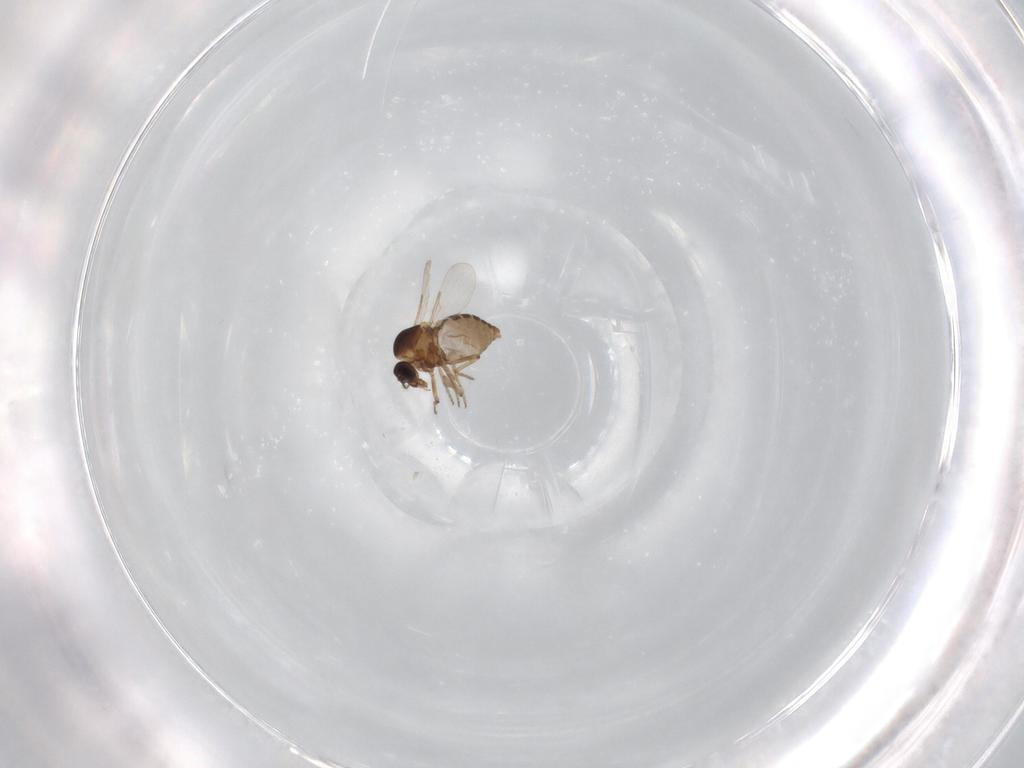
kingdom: Animalia
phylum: Arthropoda
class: Insecta
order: Diptera
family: Ceratopogonidae
